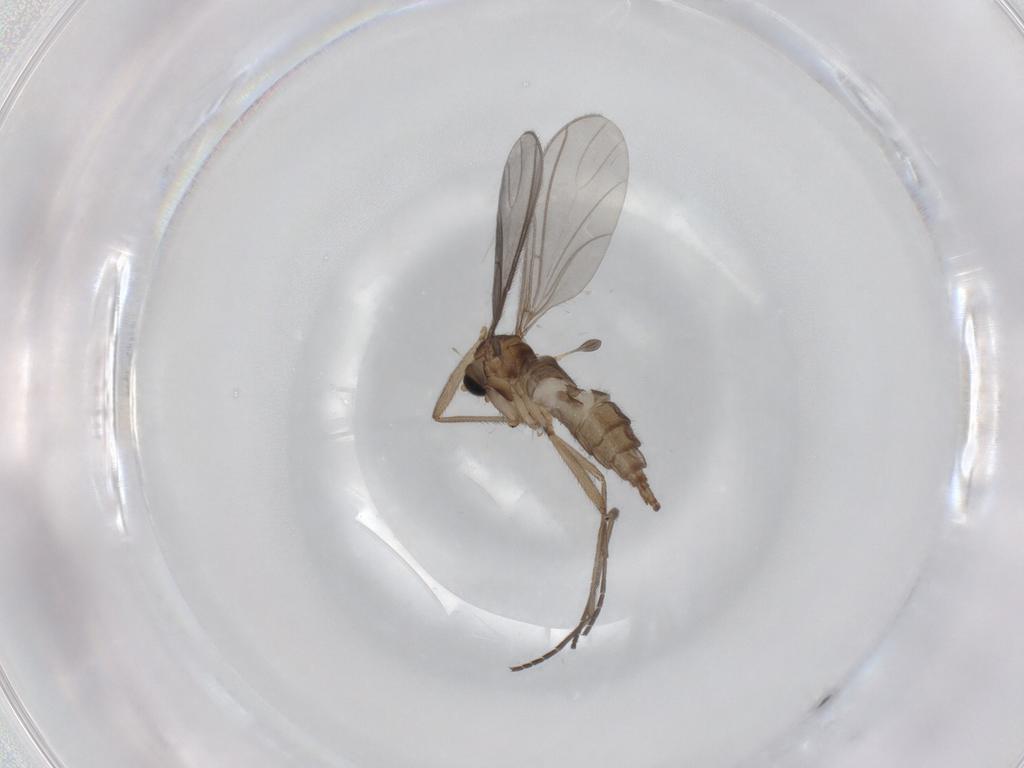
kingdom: Animalia
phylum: Arthropoda
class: Insecta
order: Diptera
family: Sciaridae
